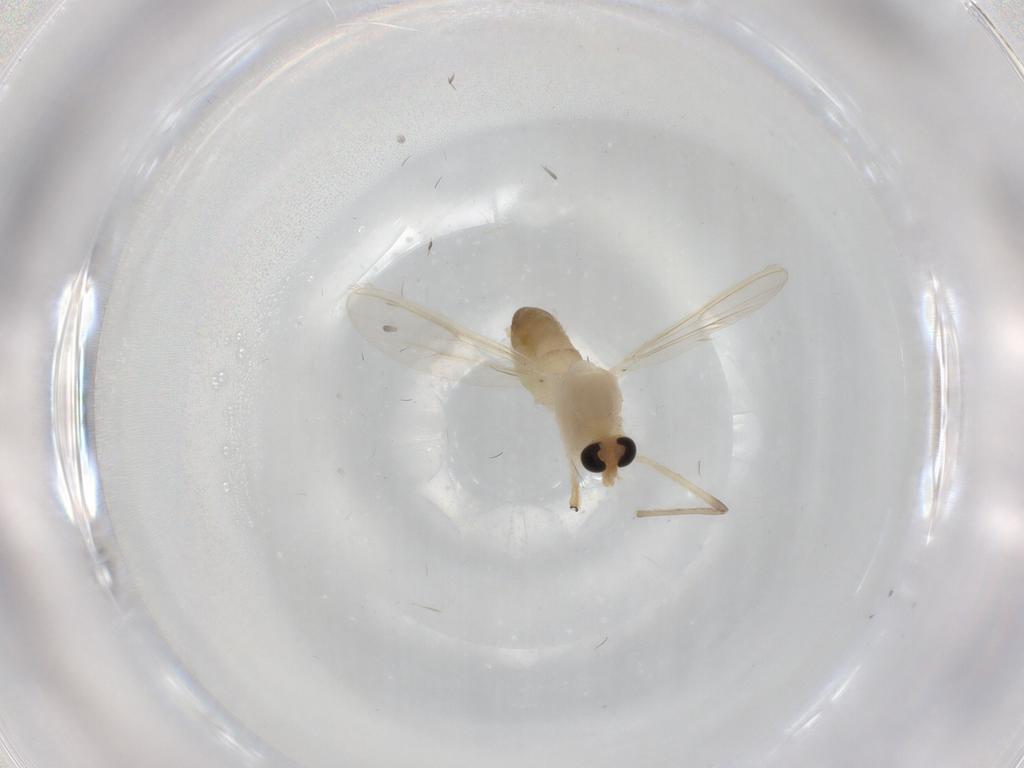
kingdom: Animalia
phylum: Arthropoda
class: Insecta
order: Diptera
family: Chironomidae
